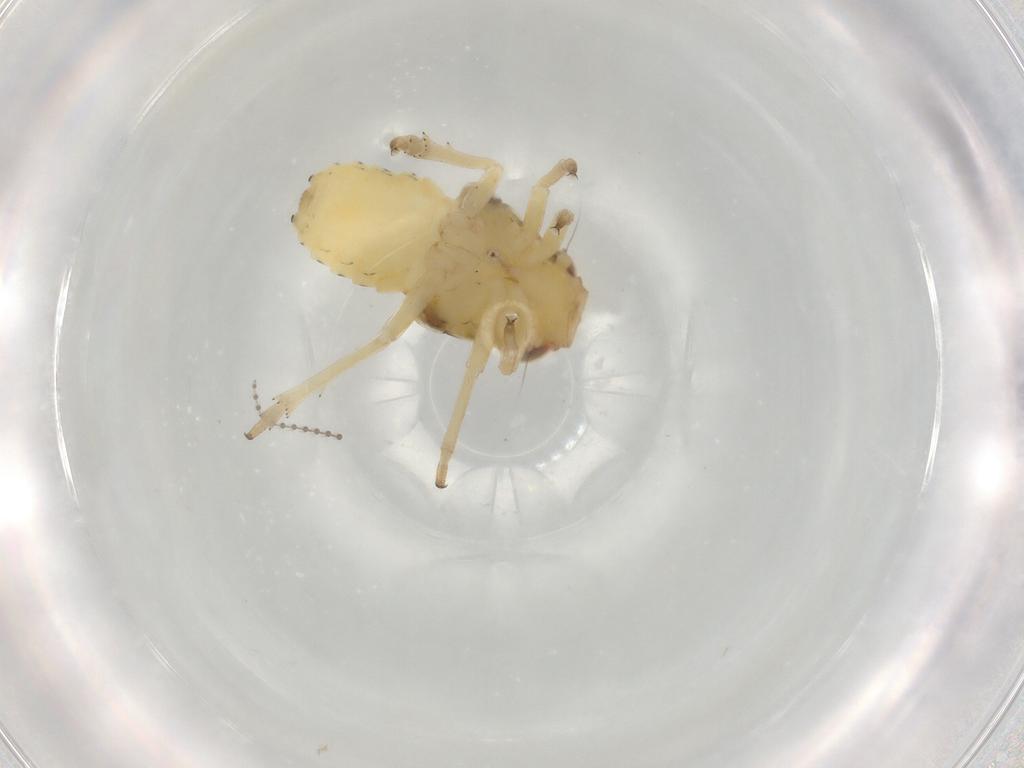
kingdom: Animalia
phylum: Arthropoda
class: Insecta
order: Hemiptera
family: Caliscelidae
